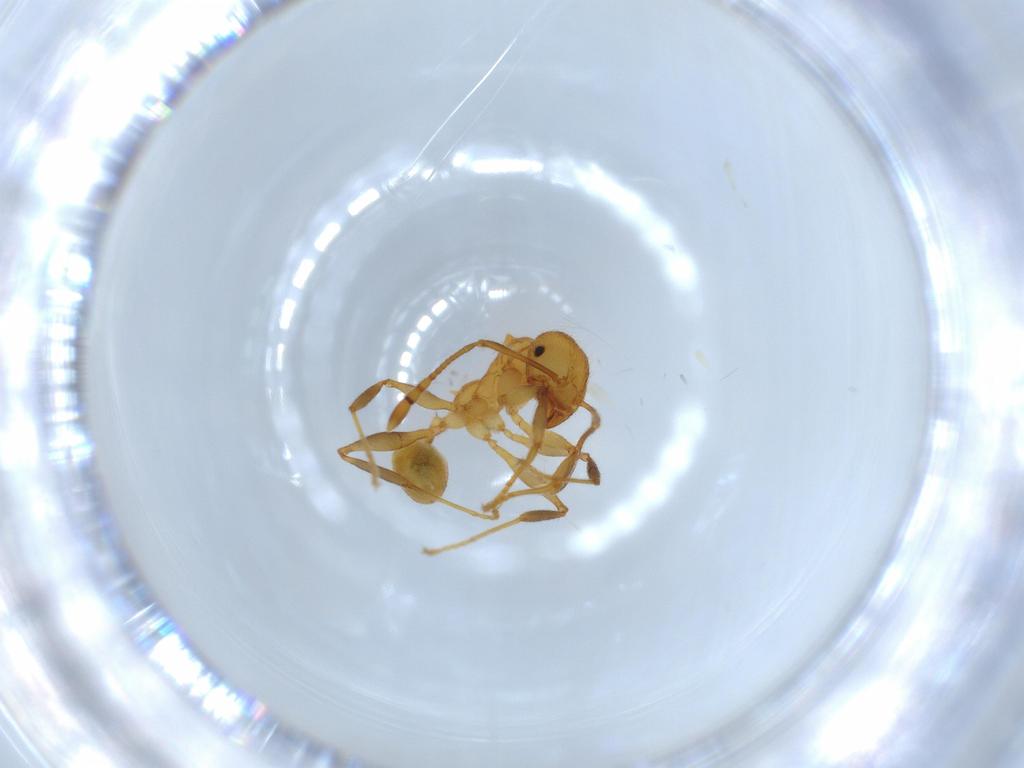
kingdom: Animalia
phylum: Arthropoda
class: Insecta
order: Hymenoptera
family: Formicidae
